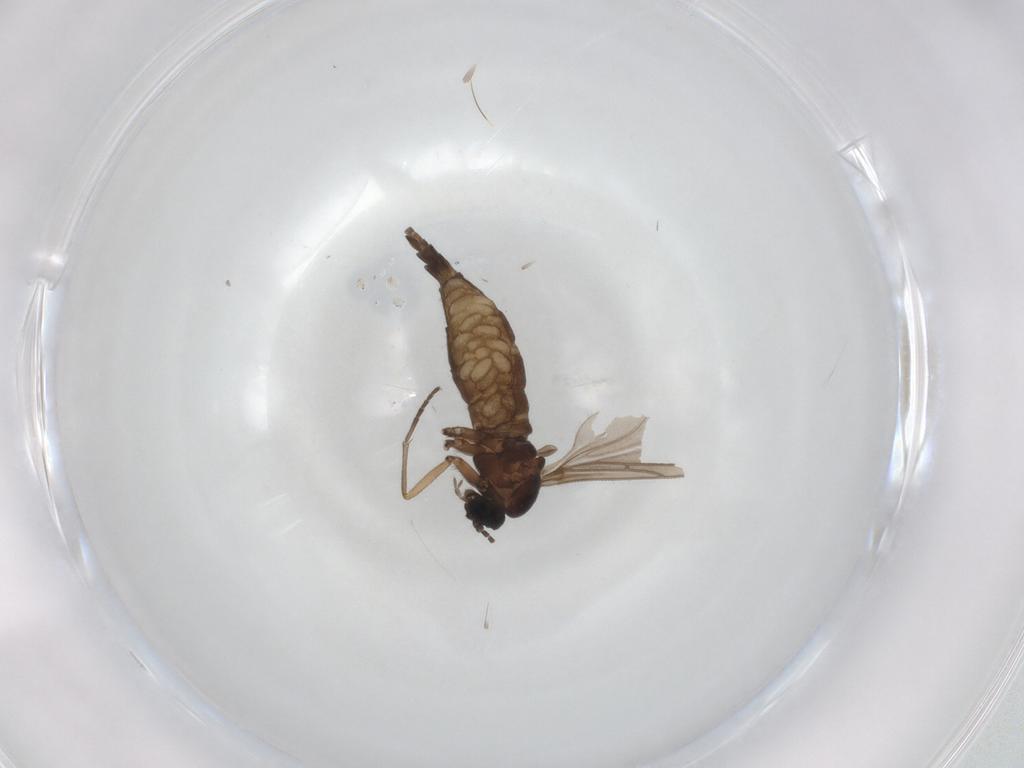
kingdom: Animalia
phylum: Arthropoda
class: Insecta
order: Diptera
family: Sciaridae
